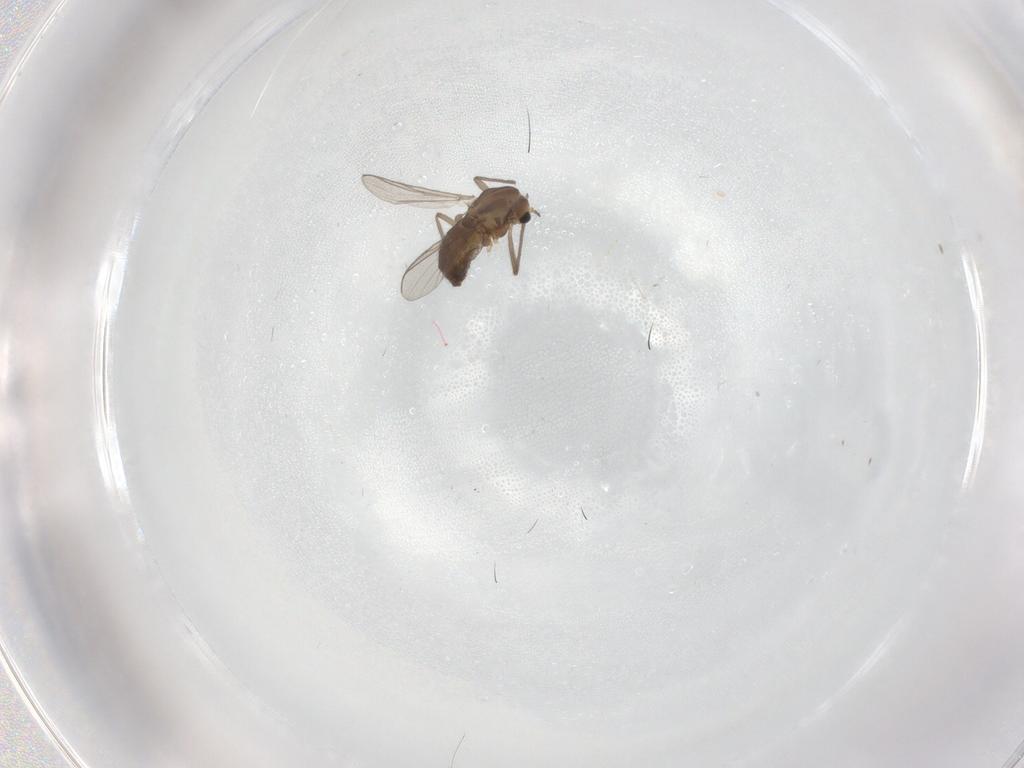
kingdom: Animalia
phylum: Arthropoda
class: Insecta
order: Diptera
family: Chironomidae
